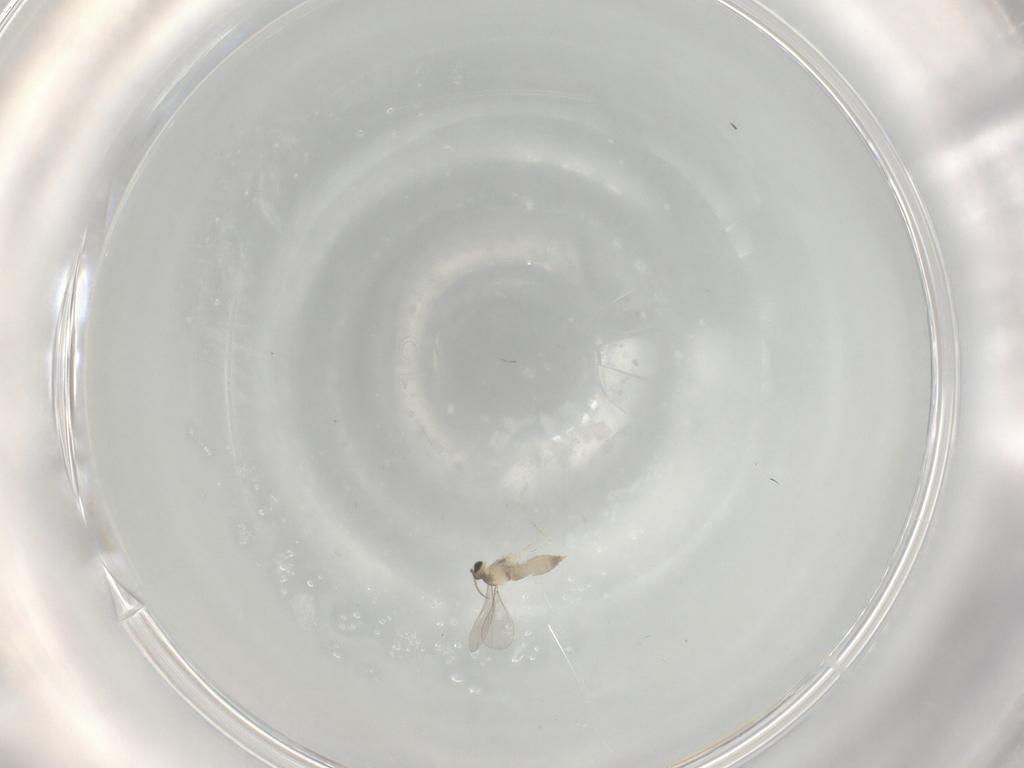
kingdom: Animalia
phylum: Arthropoda
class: Insecta
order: Diptera
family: Cecidomyiidae
